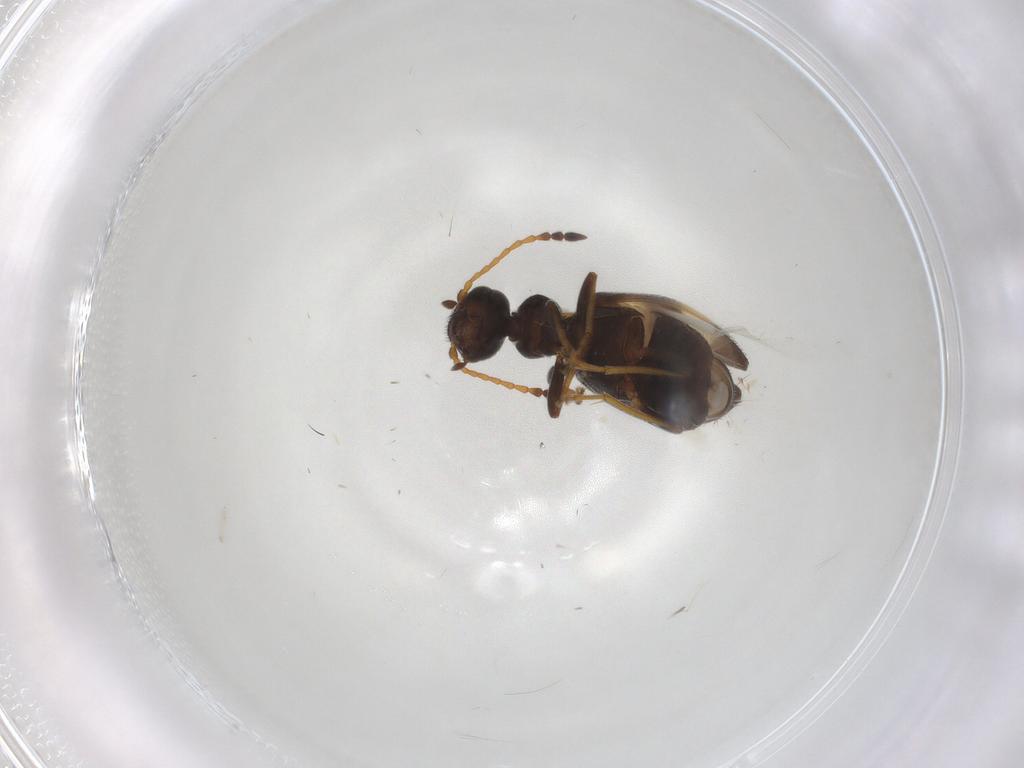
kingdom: Animalia
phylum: Arthropoda
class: Insecta
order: Coleoptera
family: Anthicidae
